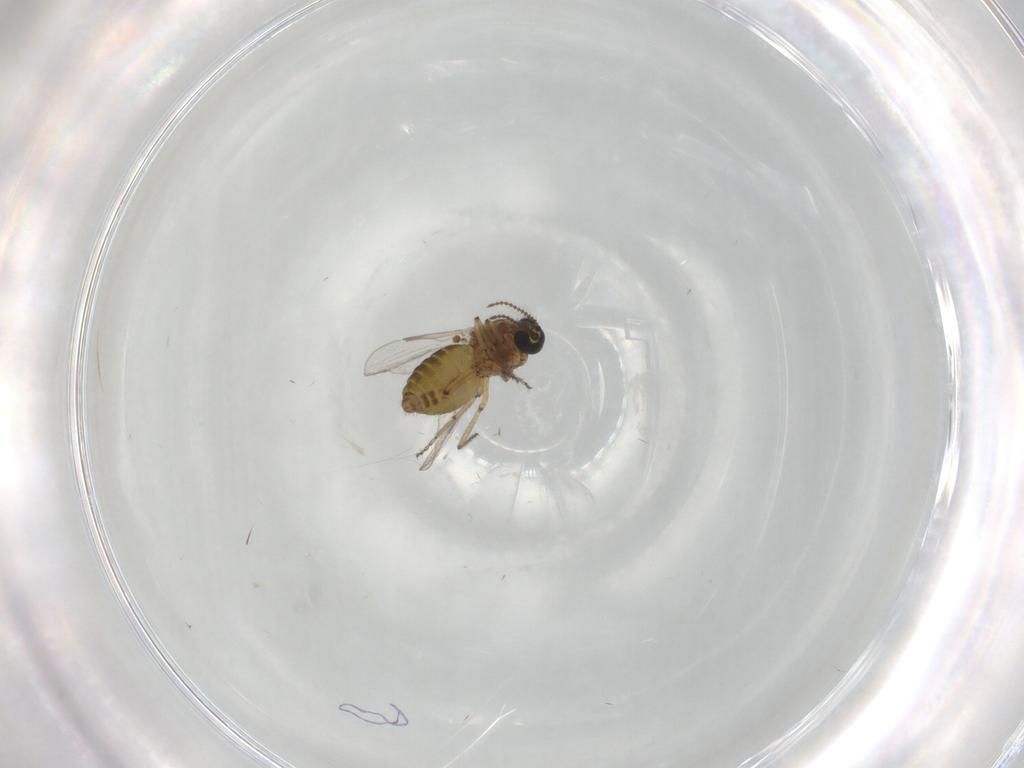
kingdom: Animalia
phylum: Arthropoda
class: Insecta
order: Diptera
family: Ceratopogonidae
